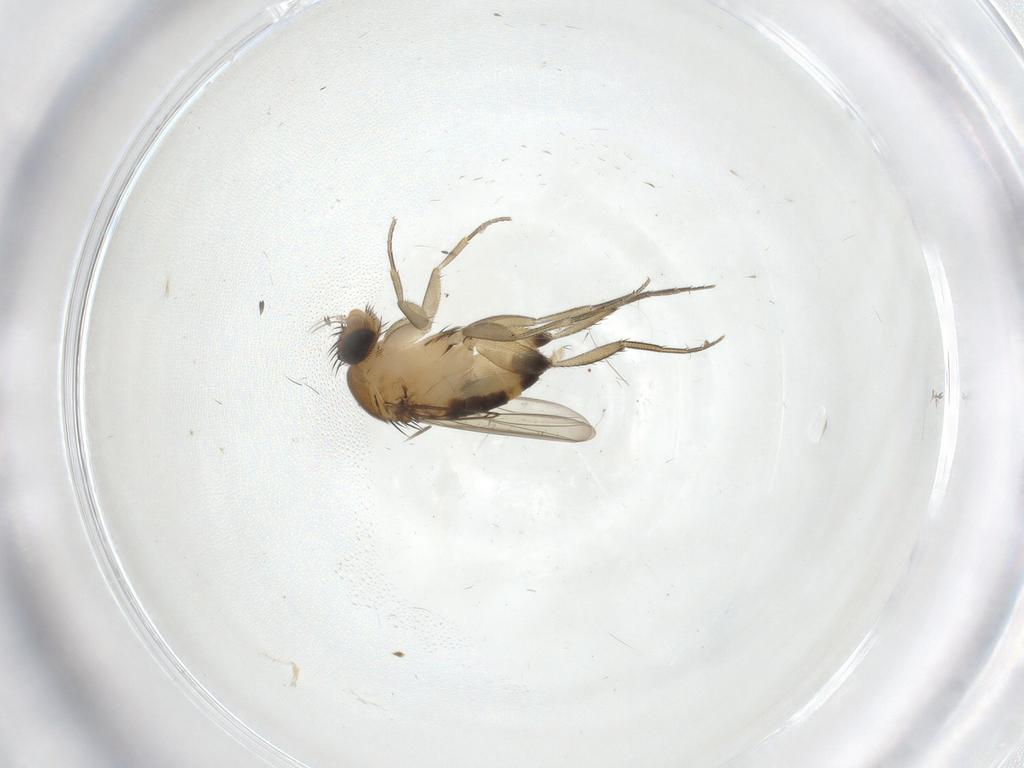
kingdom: Animalia
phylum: Arthropoda
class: Insecta
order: Diptera
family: Phoridae
